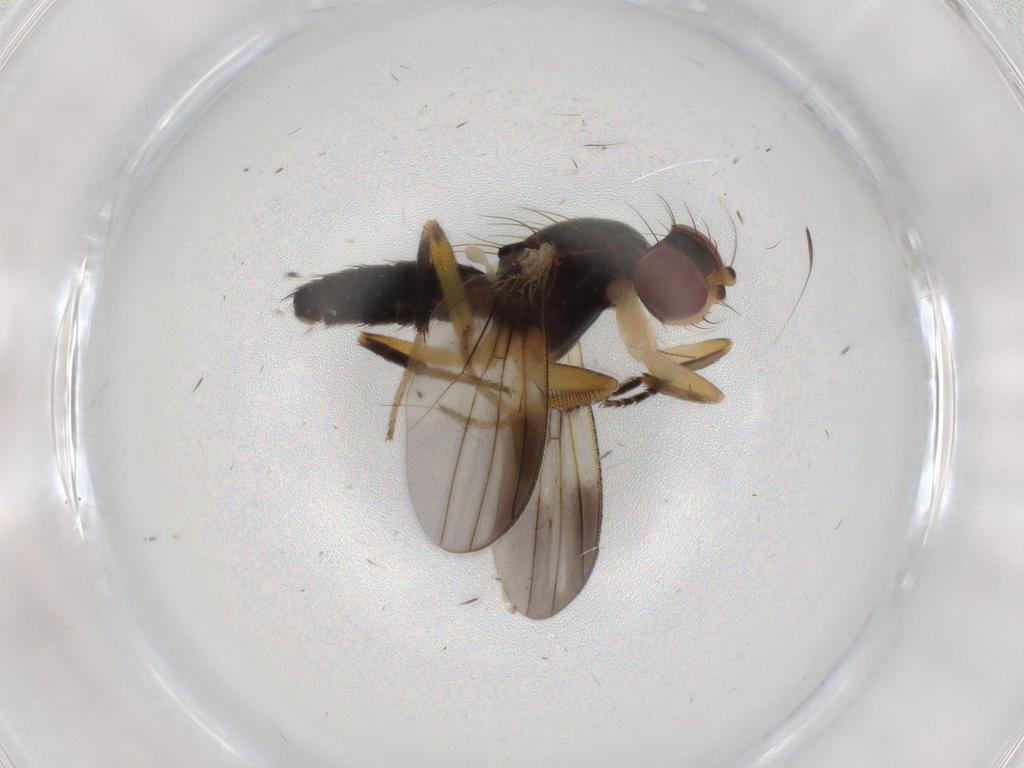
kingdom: Animalia
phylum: Arthropoda
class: Insecta
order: Diptera
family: Clusiidae
